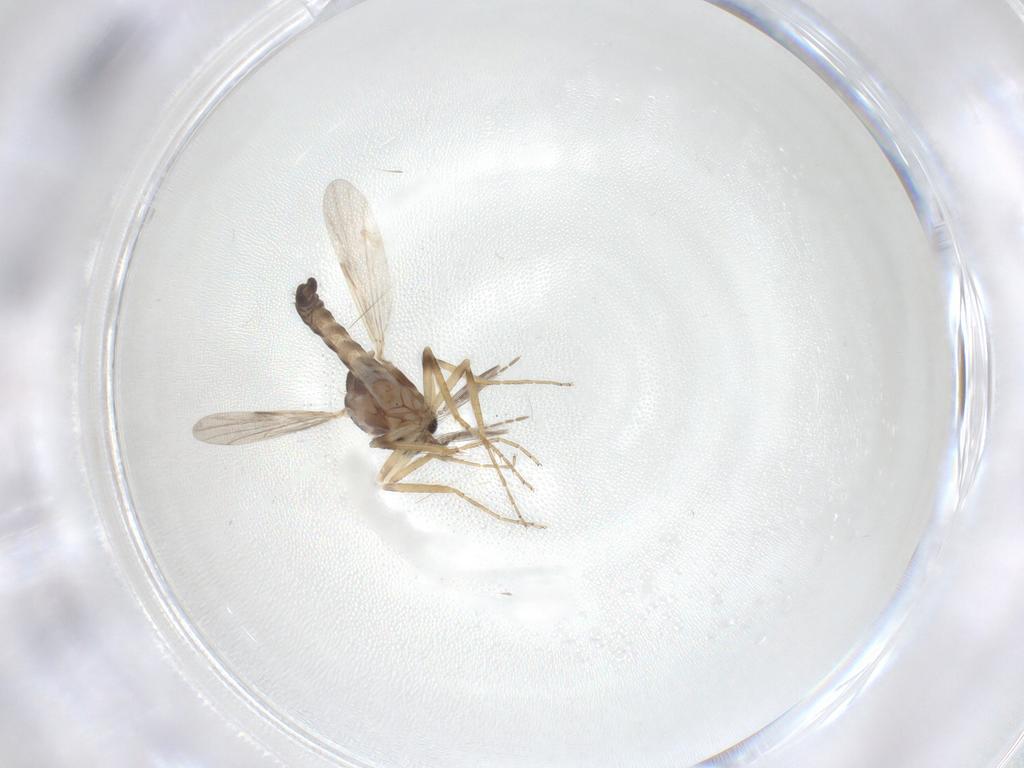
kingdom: Animalia
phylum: Arthropoda
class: Insecta
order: Diptera
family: Ceratopogonidae
